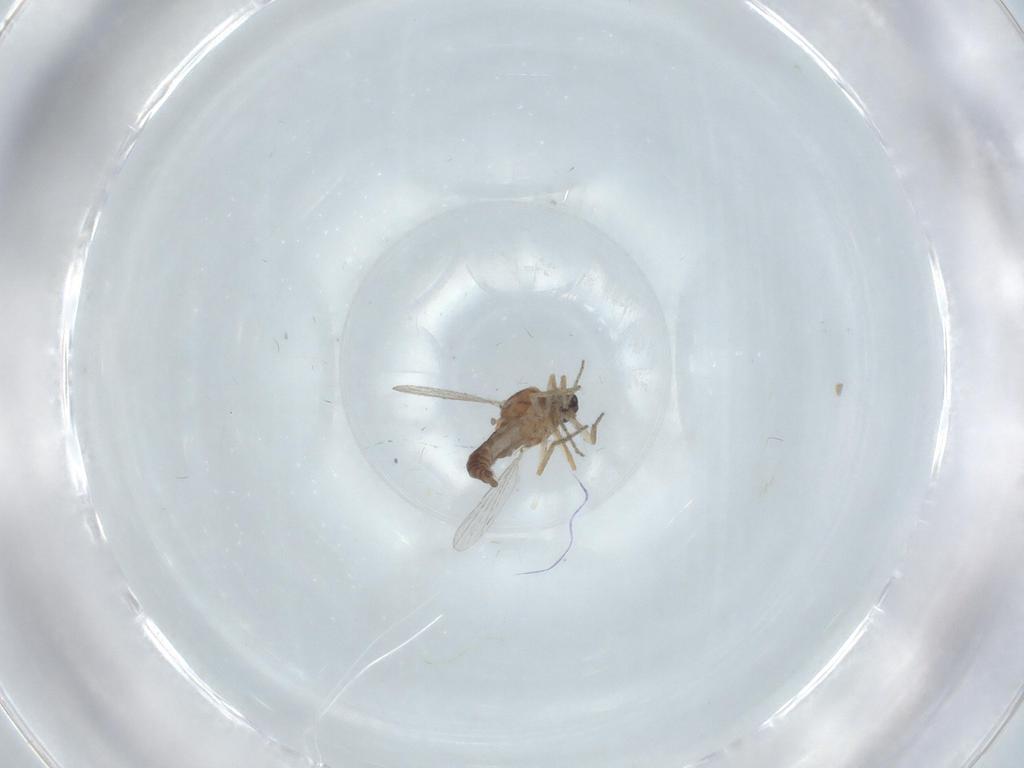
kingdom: Animalia
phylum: Arthropoda
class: Insecta
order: Diptera
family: Ceratopogonidae
